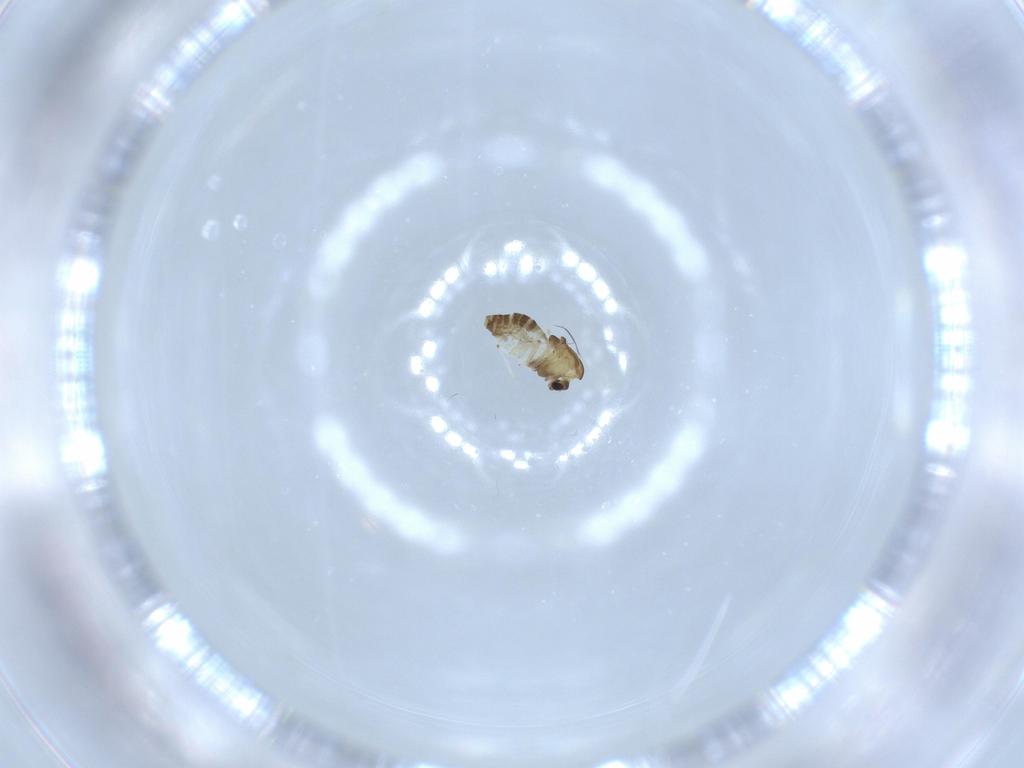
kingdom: Animalia
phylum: Arthropoda
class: Insecta
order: Diptera
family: Chironomidae
